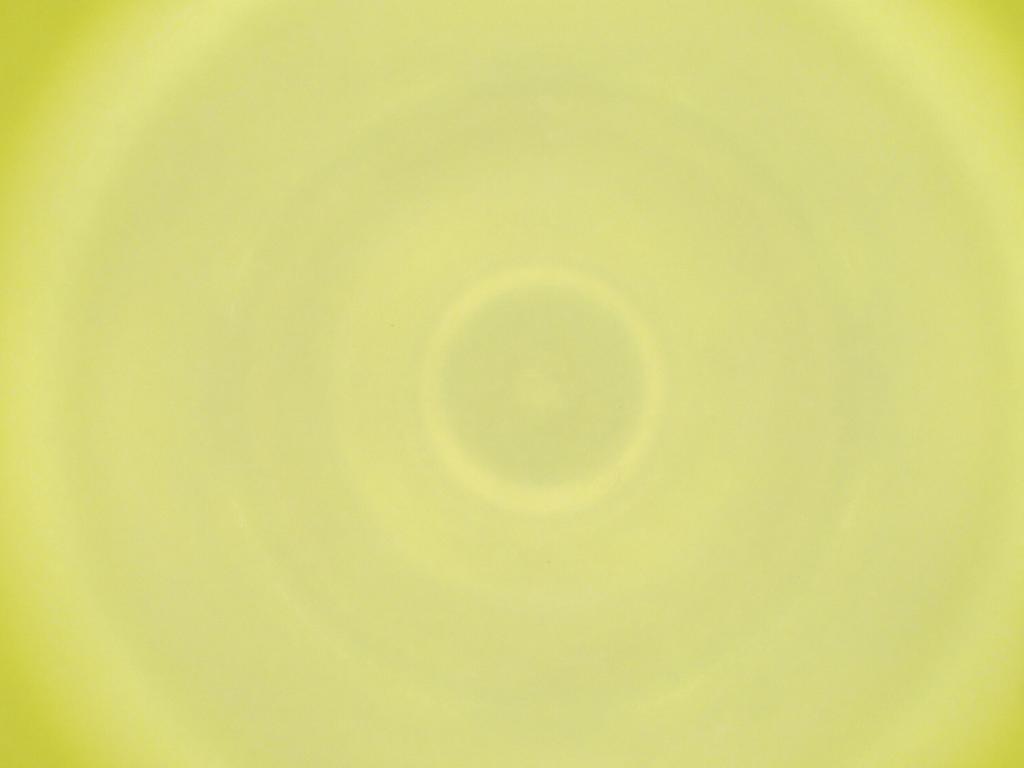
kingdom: Animalia
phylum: Arthropoda
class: Insecta
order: Diptera
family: Cecidomyiidae
